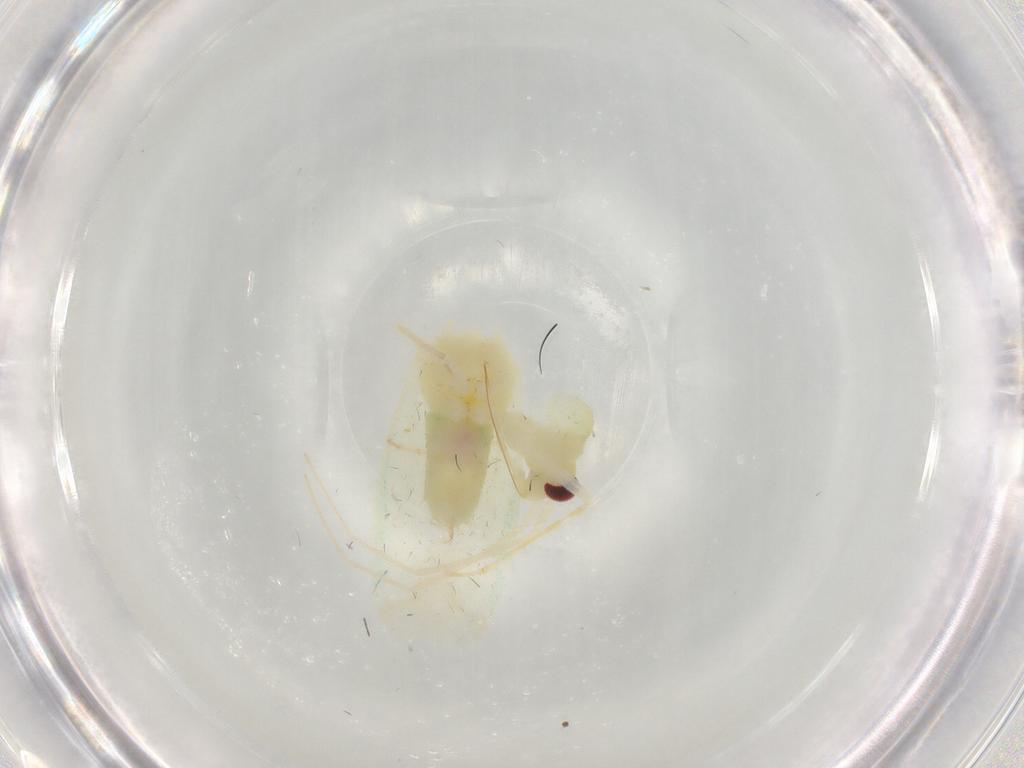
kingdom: Animalia
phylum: Arthropoda
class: Insecta
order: Hemiptera
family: Miridae
